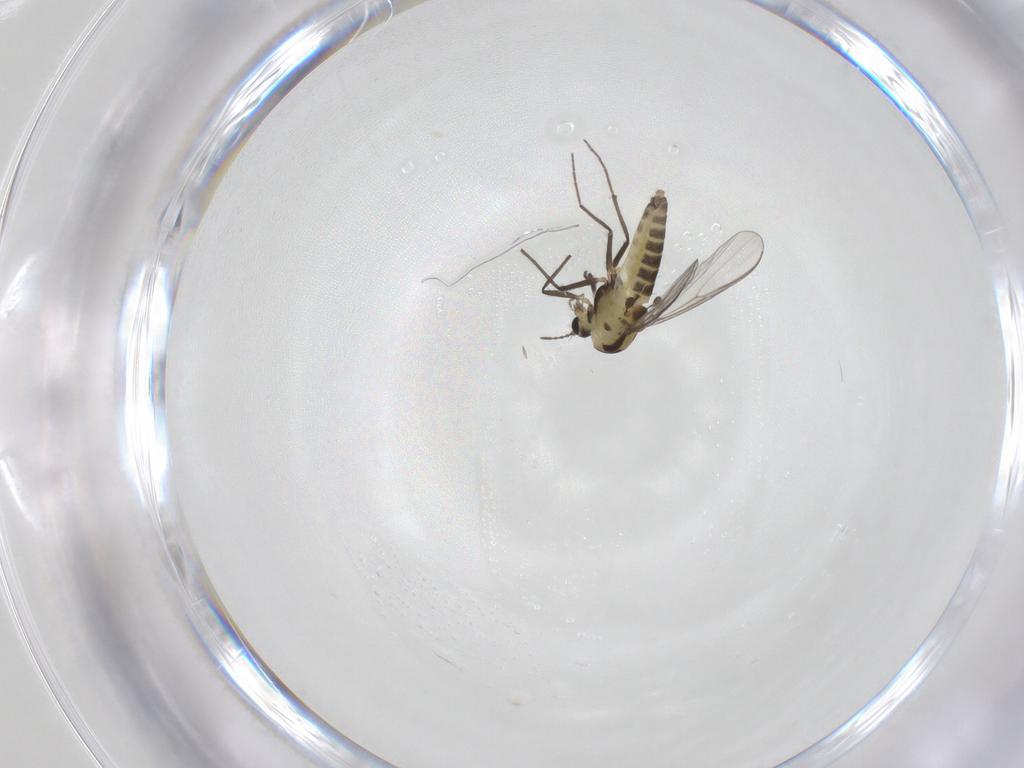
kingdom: Animalia
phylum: Arthropoda
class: Insecta
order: Diptera
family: Chironomidae
